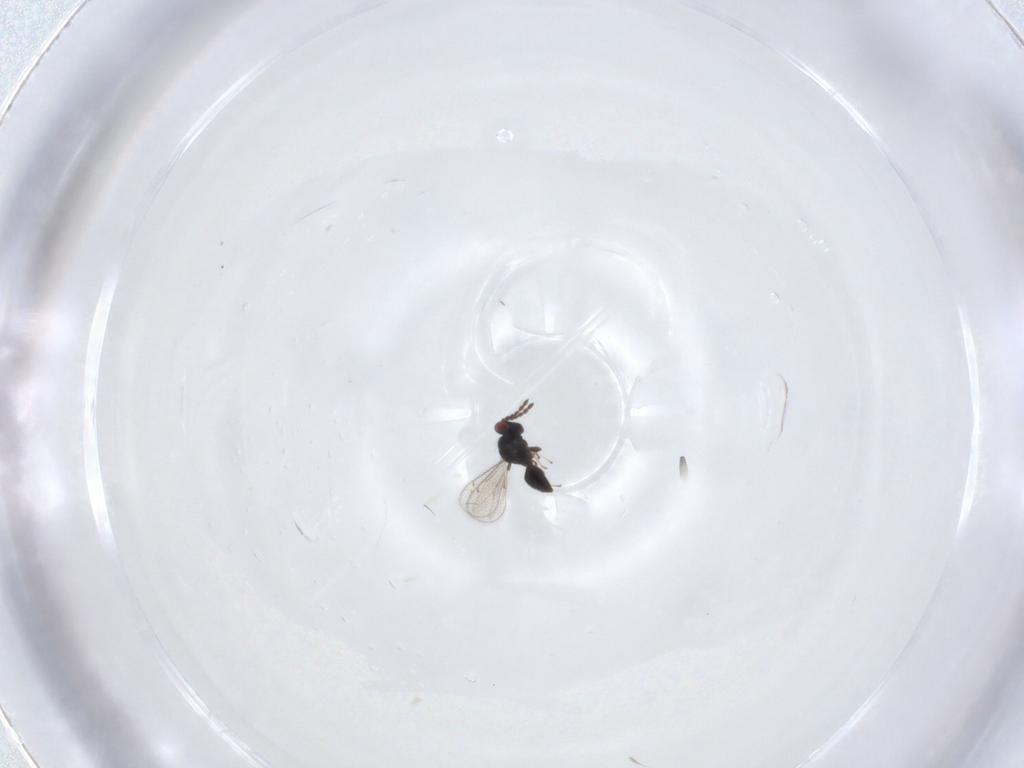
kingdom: Animalia
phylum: Arthropoda
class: Insecta
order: Hymenoptera
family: Eulophidae
